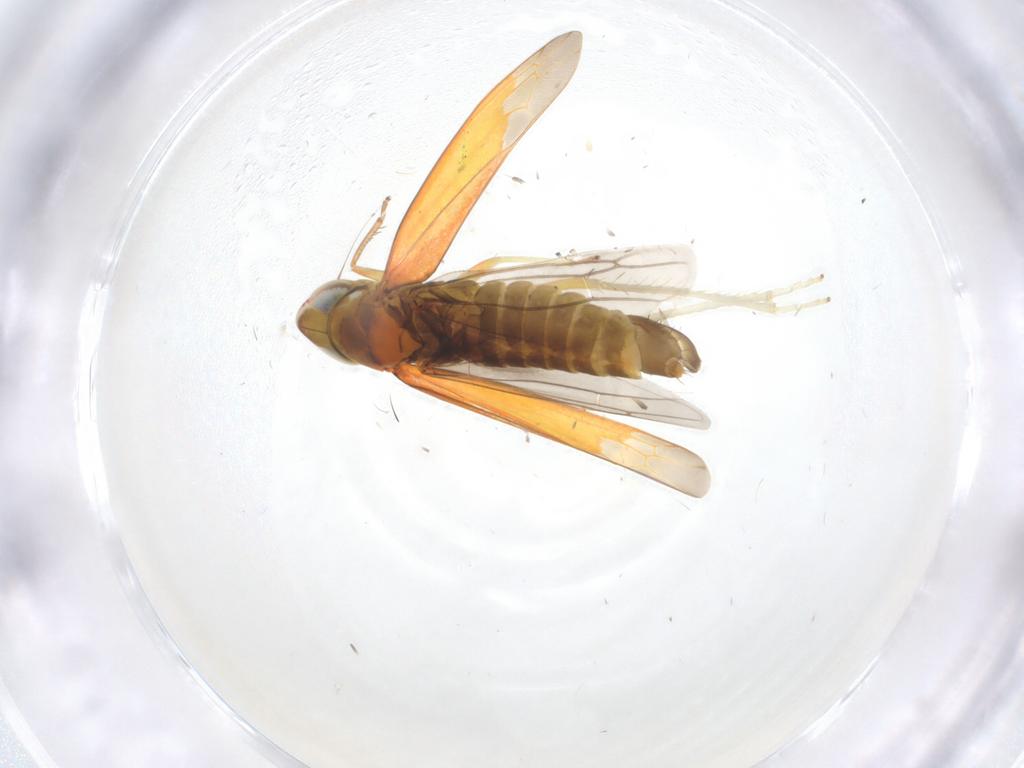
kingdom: Animalia
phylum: Arthropoda
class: Insecta
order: Hemiptera
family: Cicadellidae
